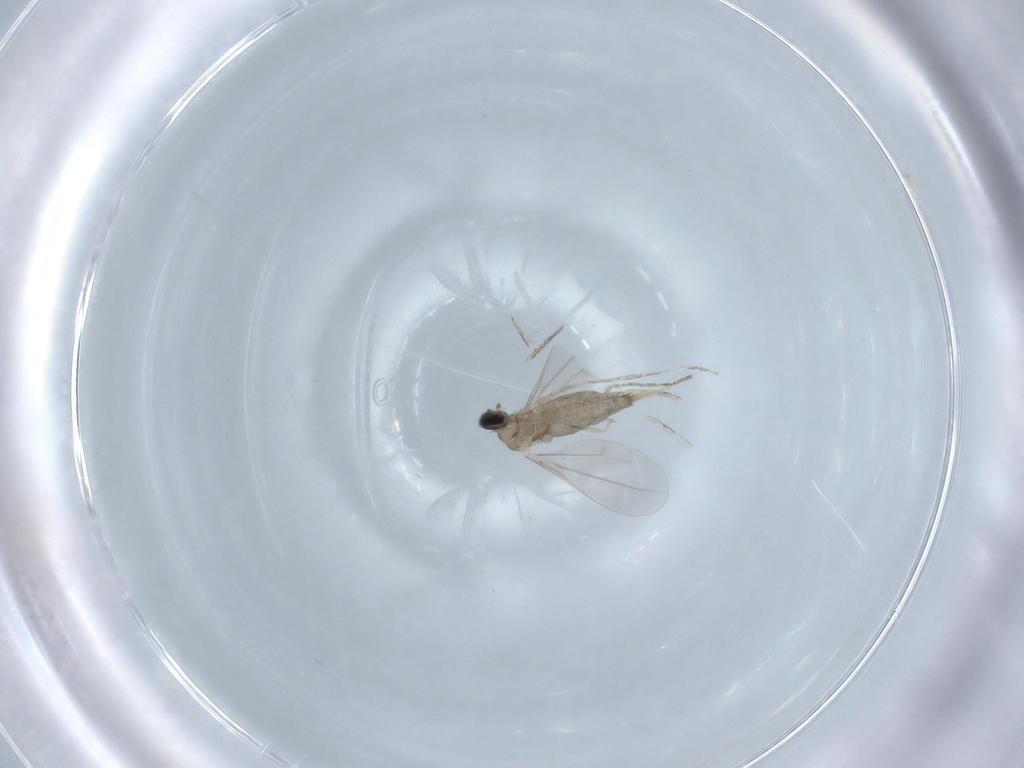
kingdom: Animalia
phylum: Arthropoda
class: Insecta
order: Diptera
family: Cecidomyiidae
